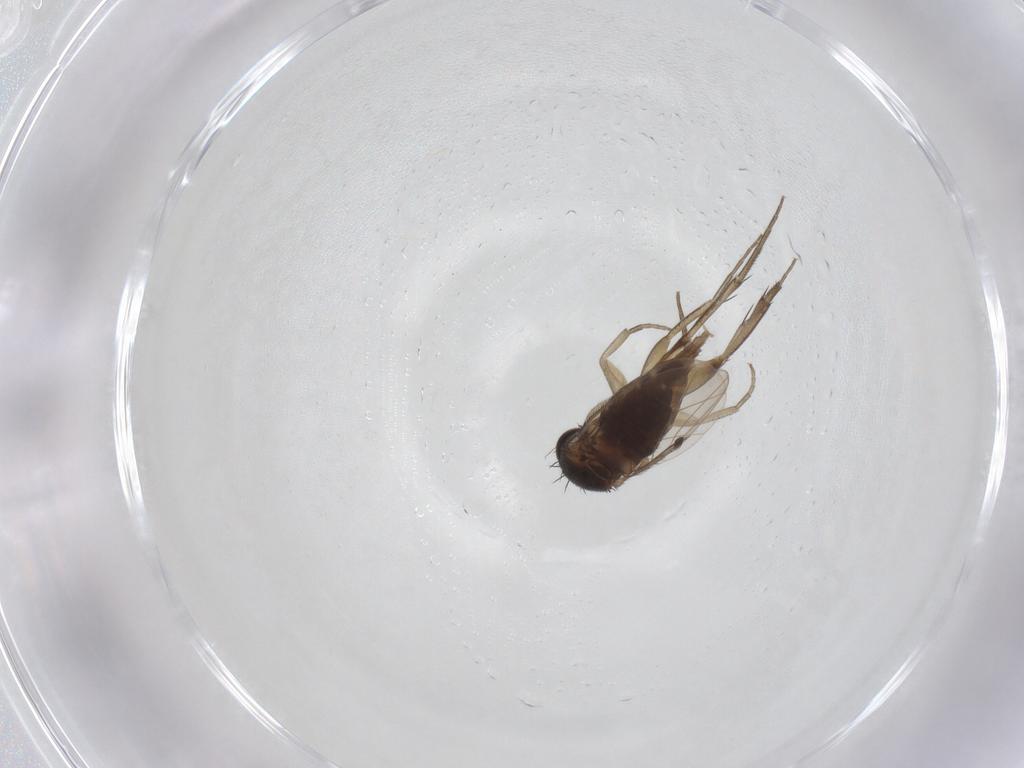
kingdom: Animalia
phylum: Arthropoda
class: Insecta
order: Diptera
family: Phoridae
